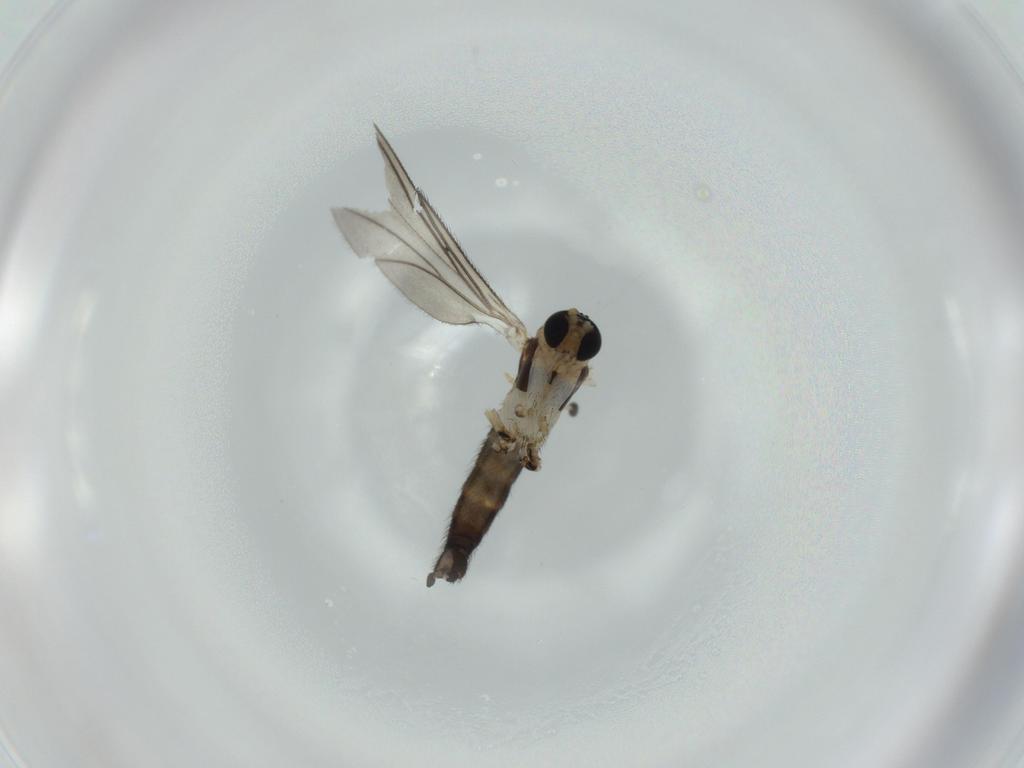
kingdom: Animalia
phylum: Arthropoda
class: Insecta
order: Diptera
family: Sciaridae
